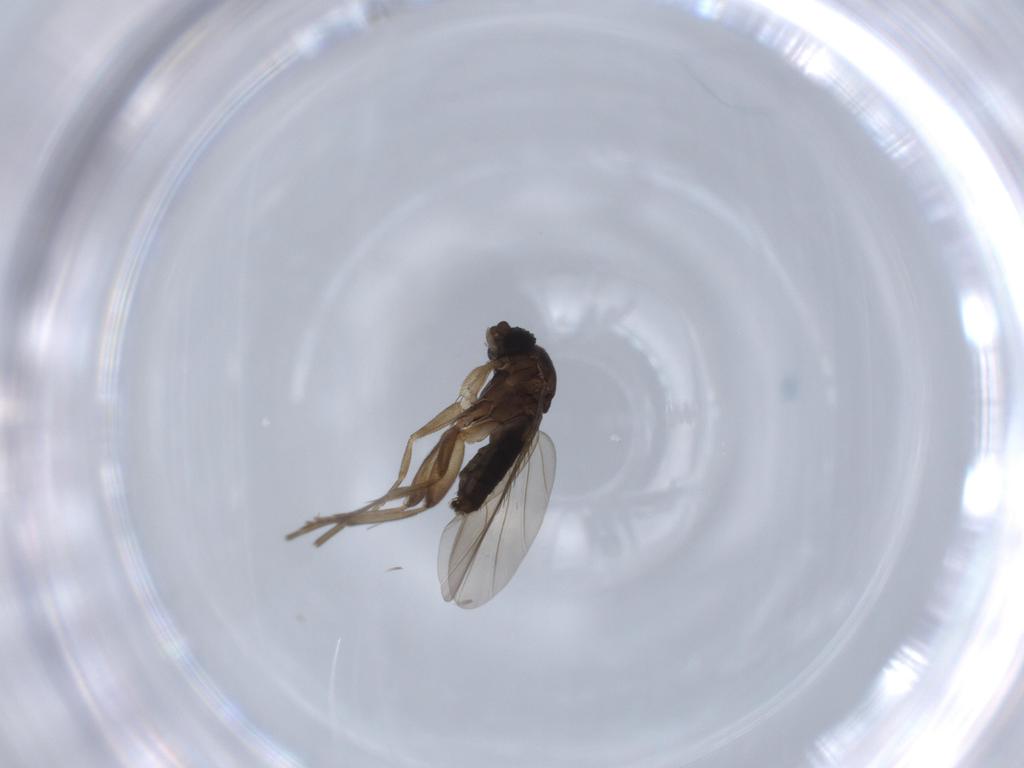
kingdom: Animalia
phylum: Arthropoda
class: Insecta
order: Diptera
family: Phoridae
